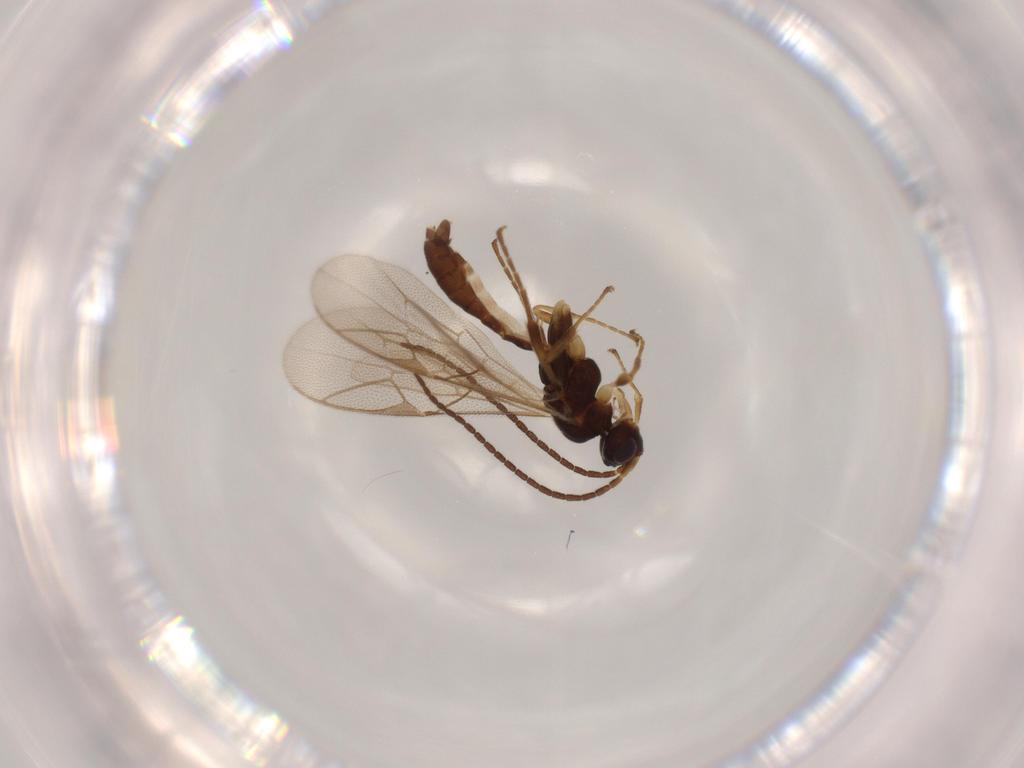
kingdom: Animalia
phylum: Arthropoda
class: Insecta
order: Hymenoptera
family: Ichneumonidae
